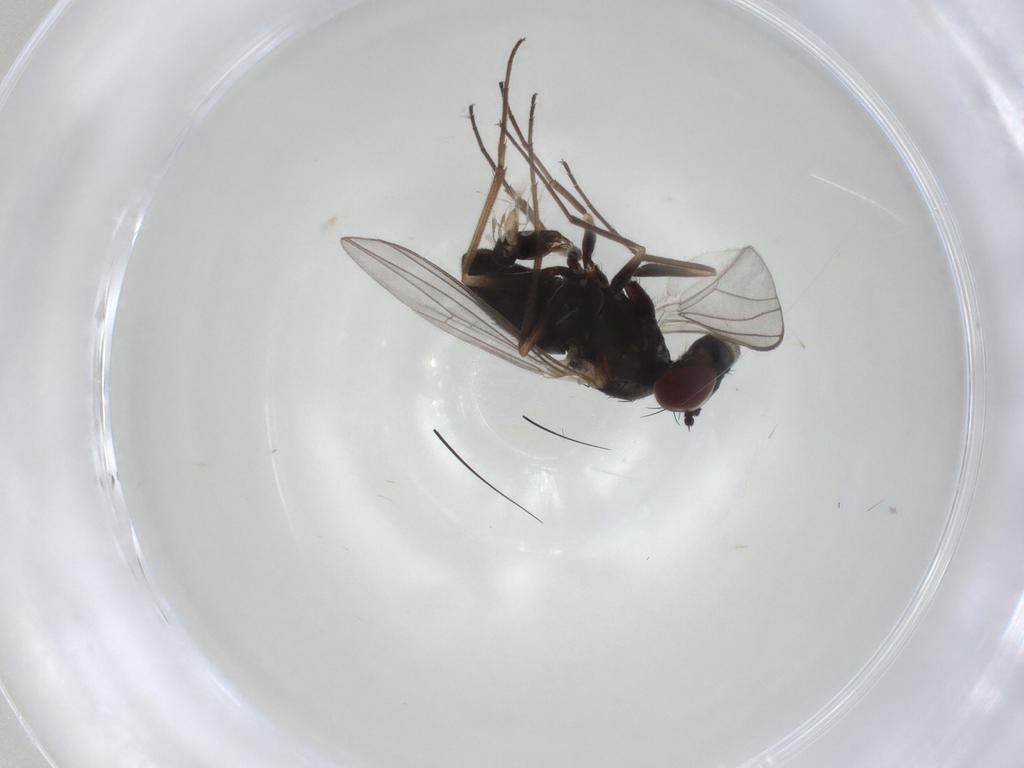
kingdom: Animalia
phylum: Arthropoda
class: Insecta
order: Diptera
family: Dolichopodidae
